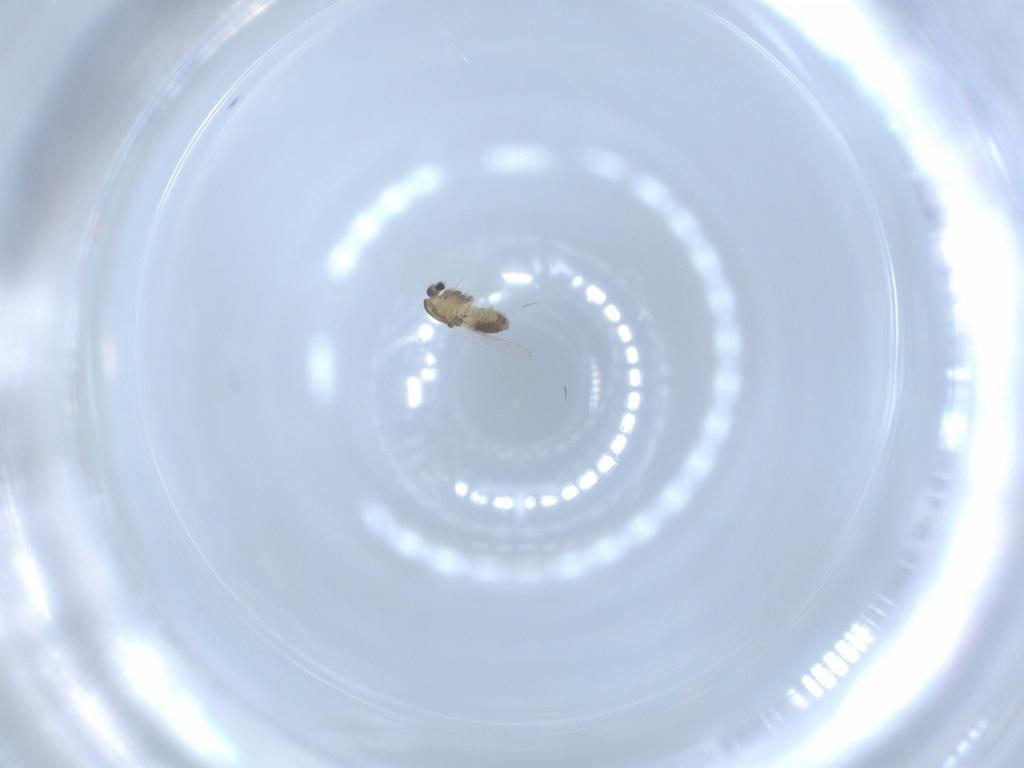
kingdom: Animalia
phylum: Arthropoda
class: Insecta
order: Diptera
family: Chironomidae
